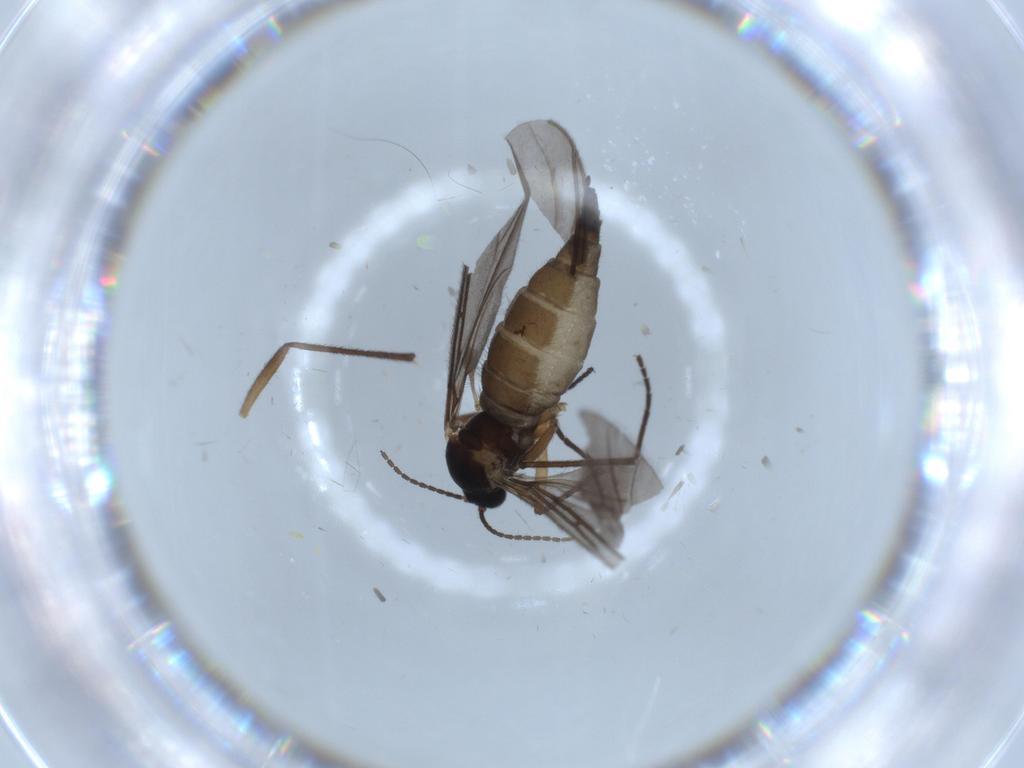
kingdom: Animalia
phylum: Arthropoda
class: Insecta
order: Diptera
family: Sciaridae
